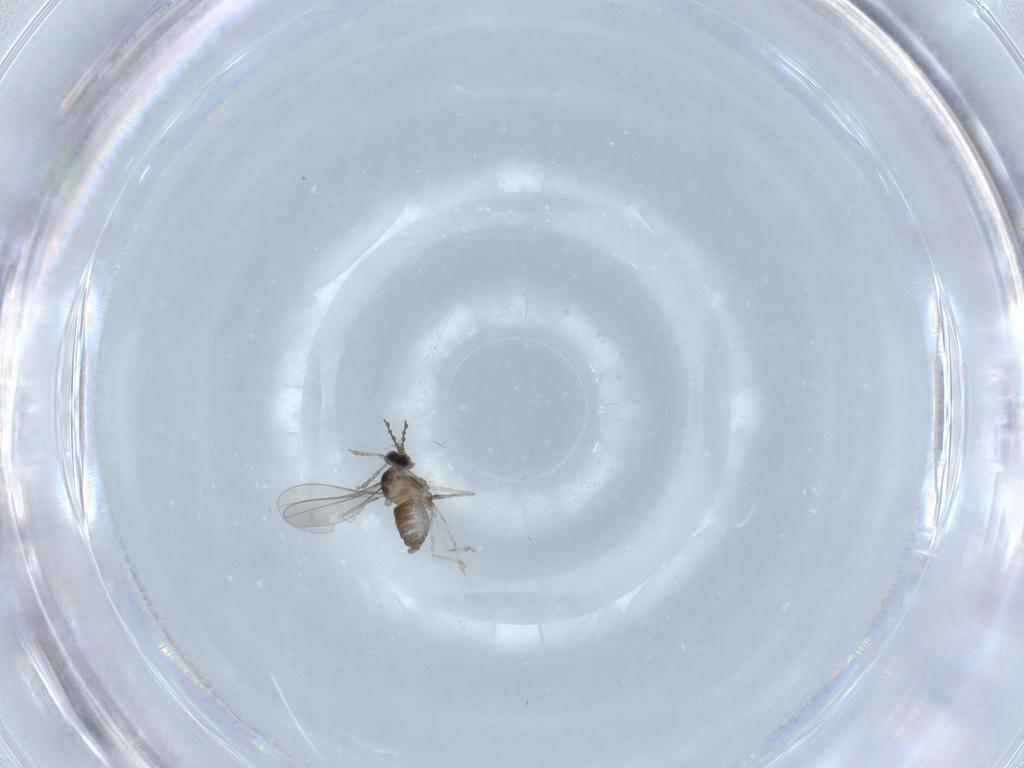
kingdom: Animalia
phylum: Arthropoda
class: Insecta
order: Diptera
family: Cecidomyiidae
